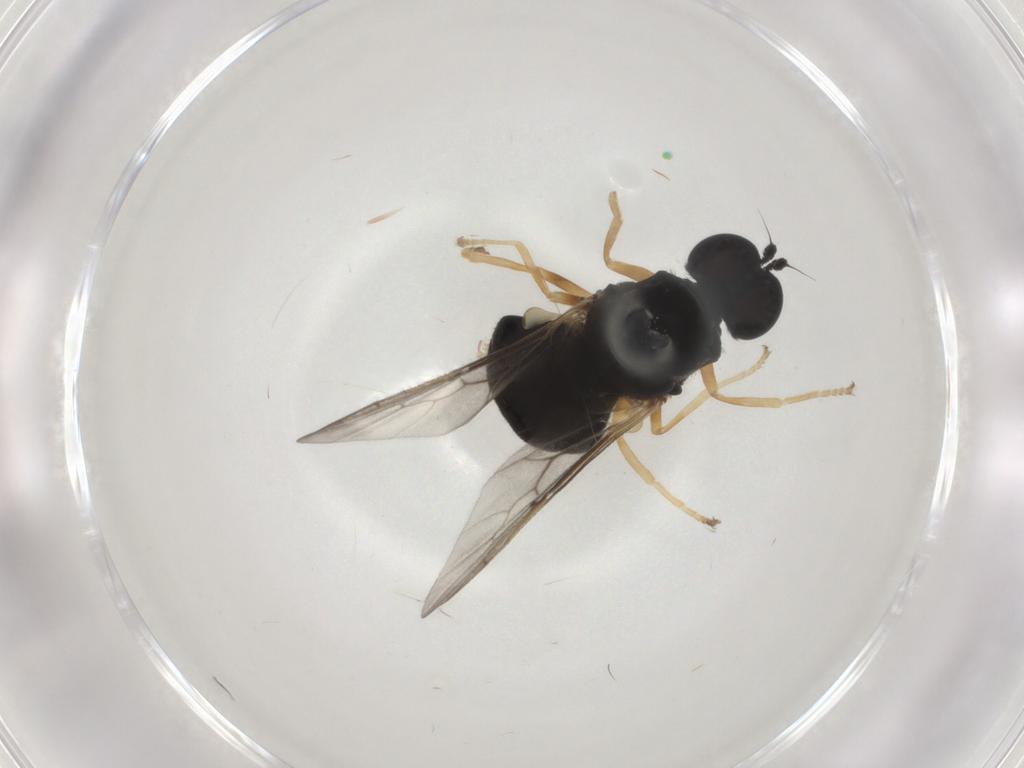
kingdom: Animalia
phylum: Arthropoda
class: Insecta
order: Diptera
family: Stratiomyidae
